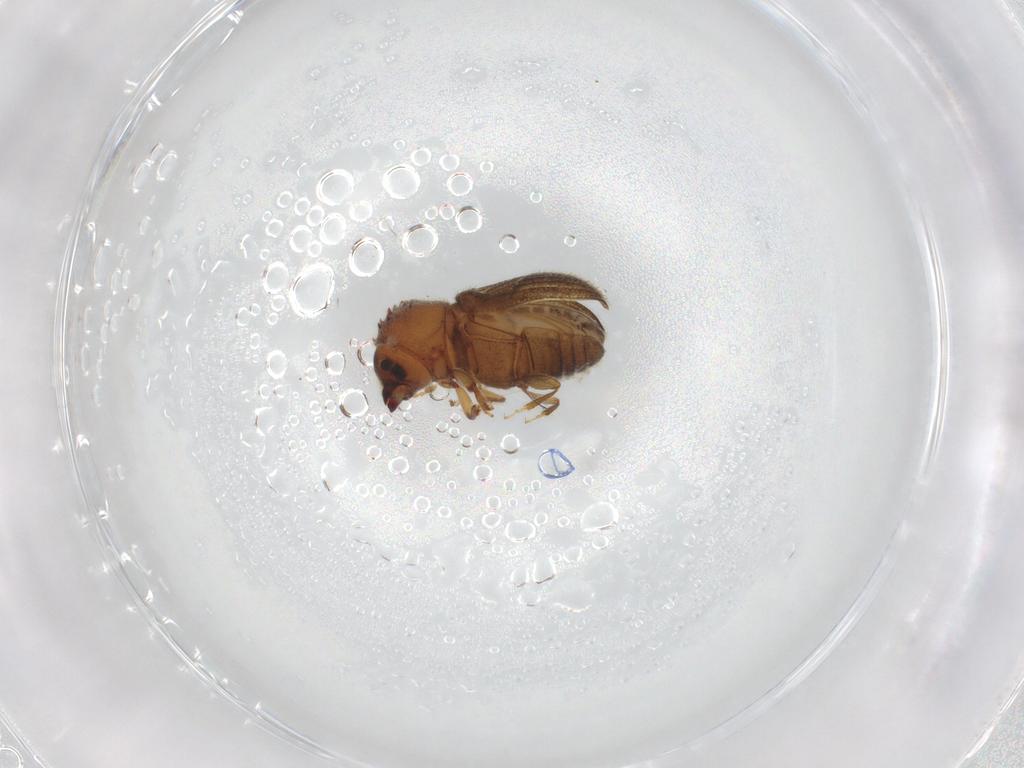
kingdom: Animalia
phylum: Arthropoda
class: Insecta
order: Coleoptera
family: Curculionidae
